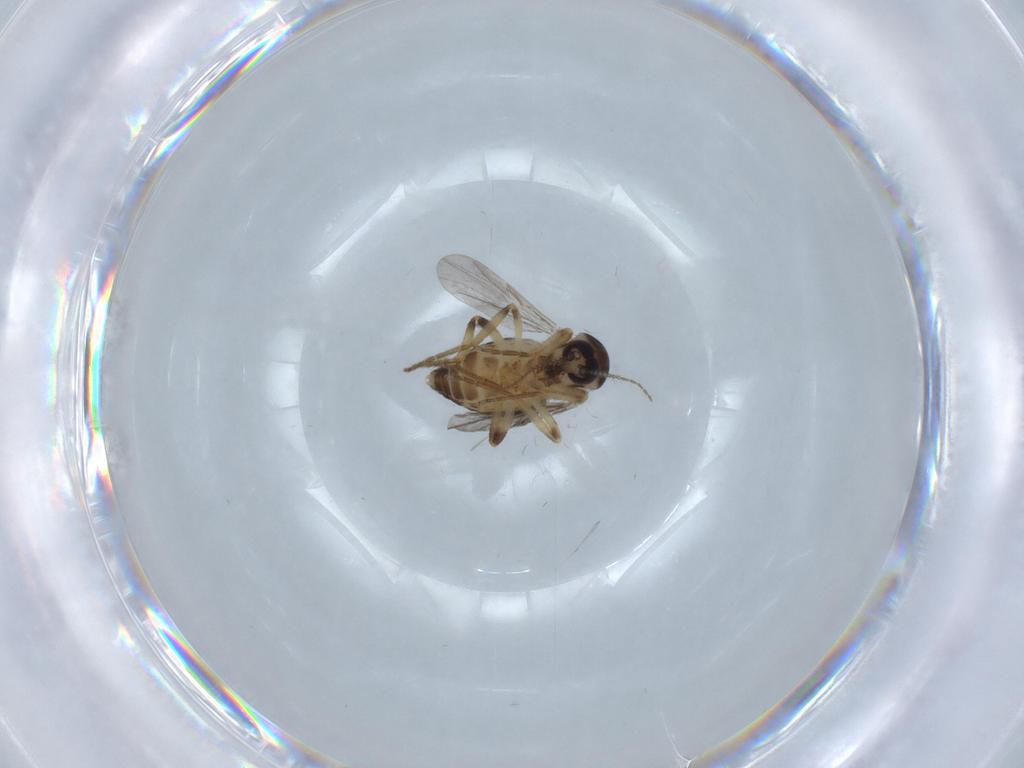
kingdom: Animalia
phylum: Arthropoda
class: Insecta
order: Diptera
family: Ceratopogonidae
